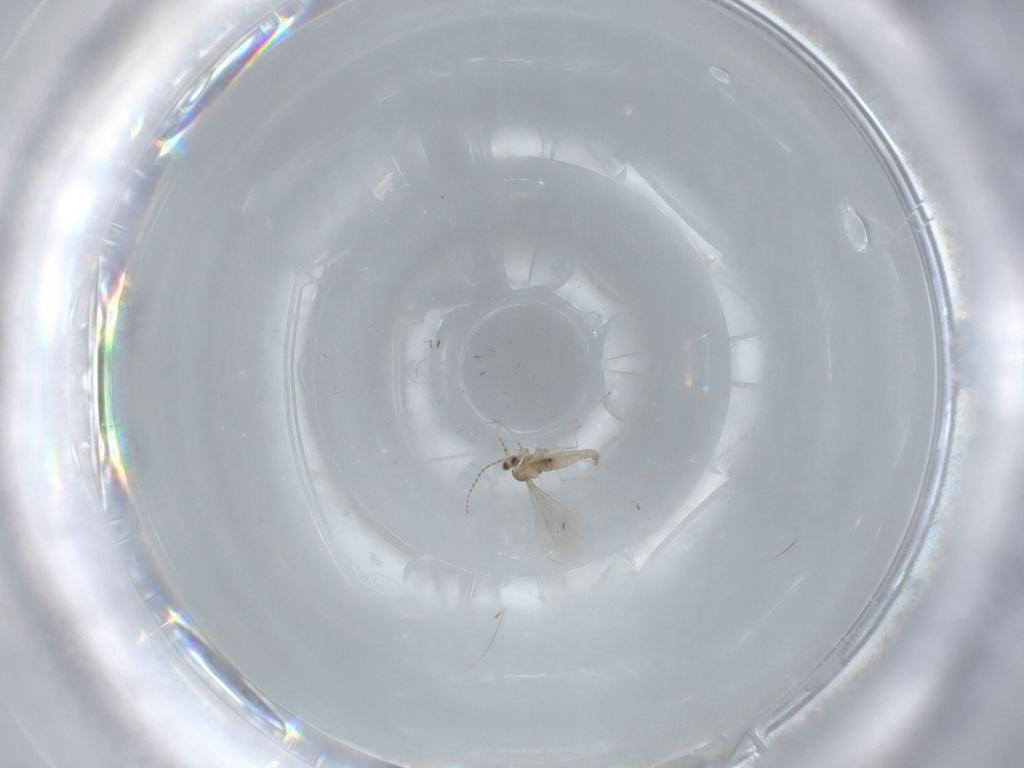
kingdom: Animalia
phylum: Arthropoda
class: Insecta
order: Diptera
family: Cecidomyiidae
